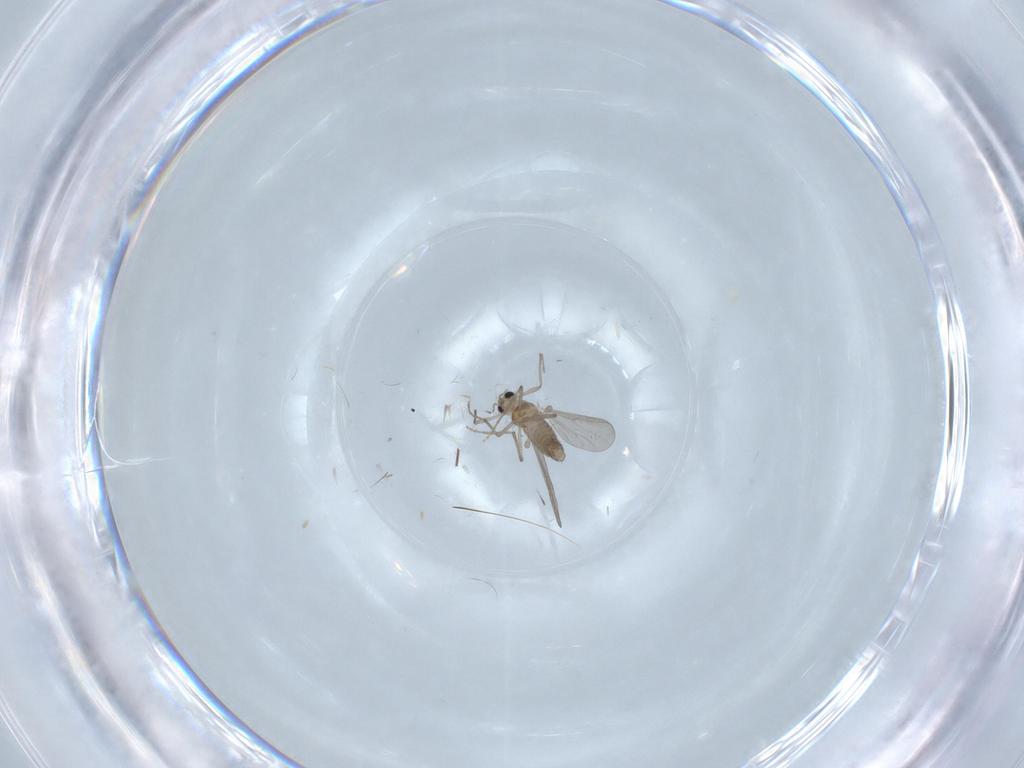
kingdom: Animalia
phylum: Arthropoda
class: Insecta
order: Diptera
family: Chironomidae
